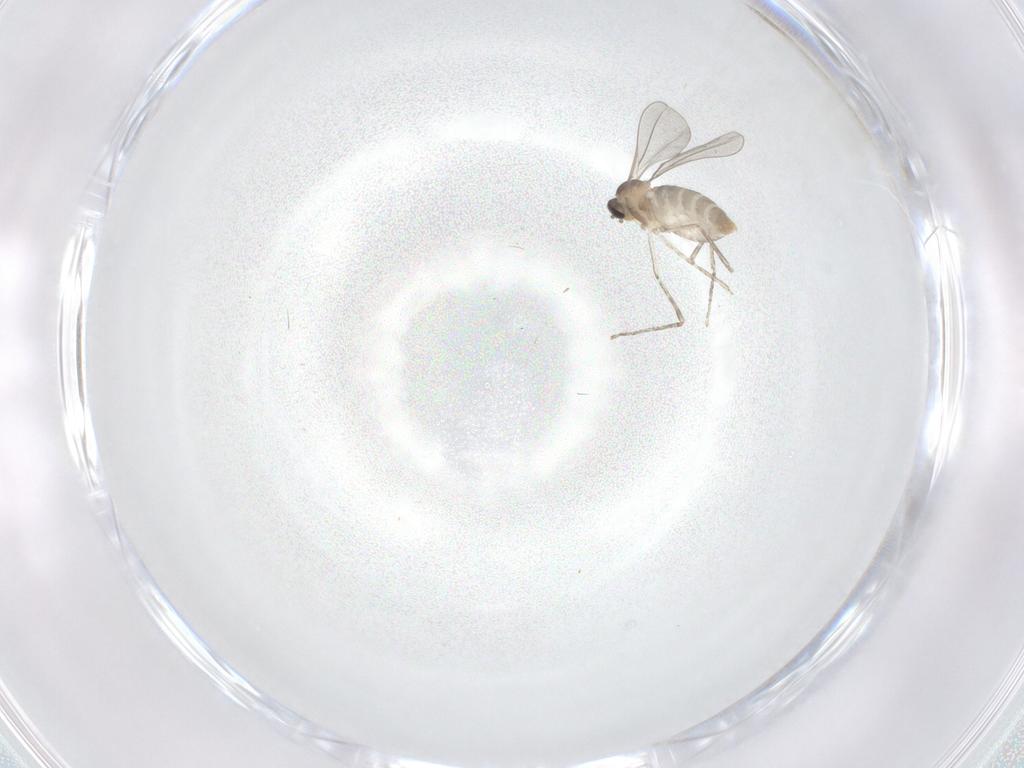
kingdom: Animalia
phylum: Arthropoda
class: Insecta
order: Diptera
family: Cecidomyiidae
